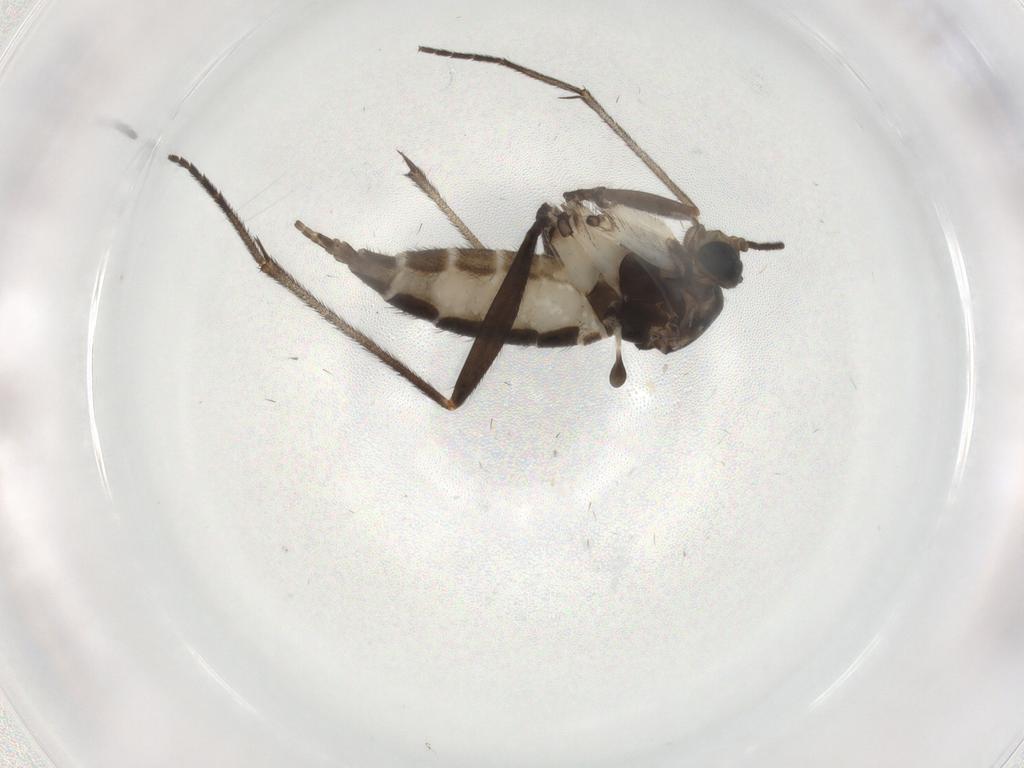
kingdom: Animalia
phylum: Arthropoda
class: Insecta
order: Diptera
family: Sciaridae
